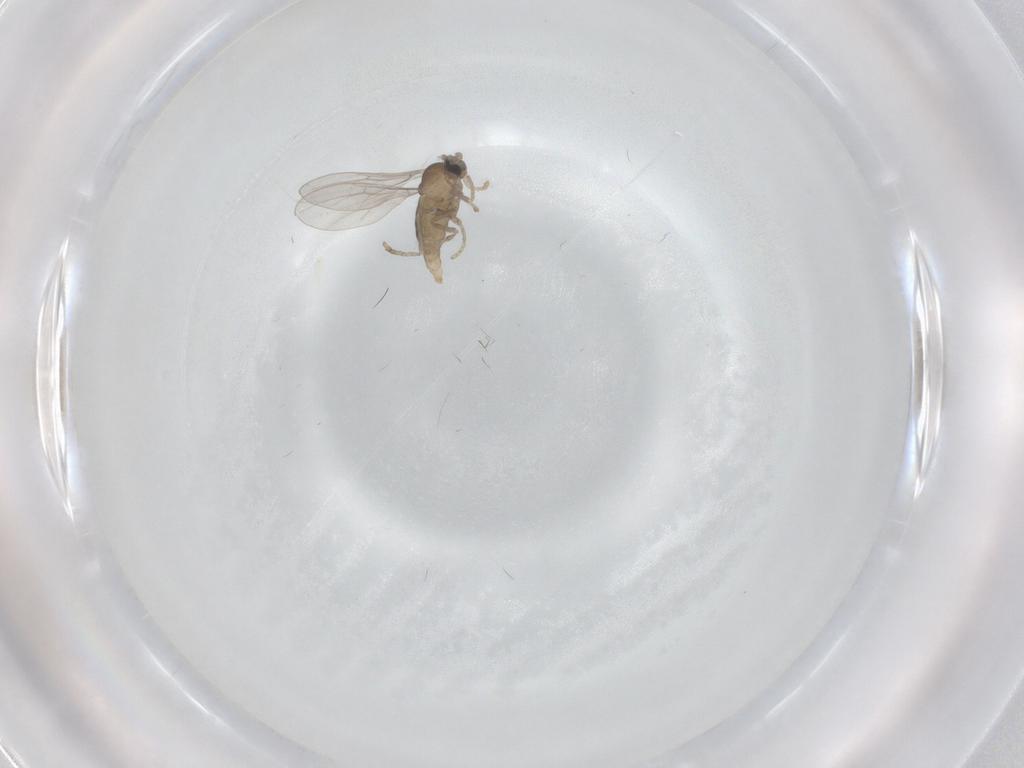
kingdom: Animalia
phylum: Arthropoda
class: Insecta
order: Diptera
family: Cecidomyiidae
